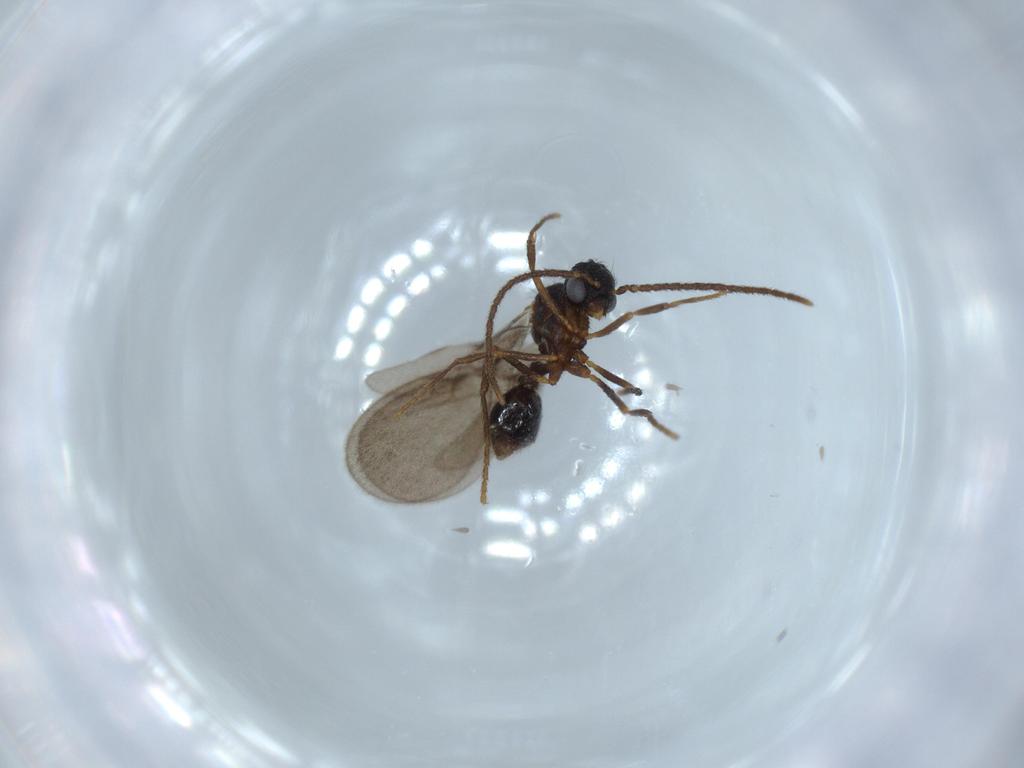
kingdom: Animalia
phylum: Arthropoda
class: Insecta
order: Hymenoptera
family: Formicidae
